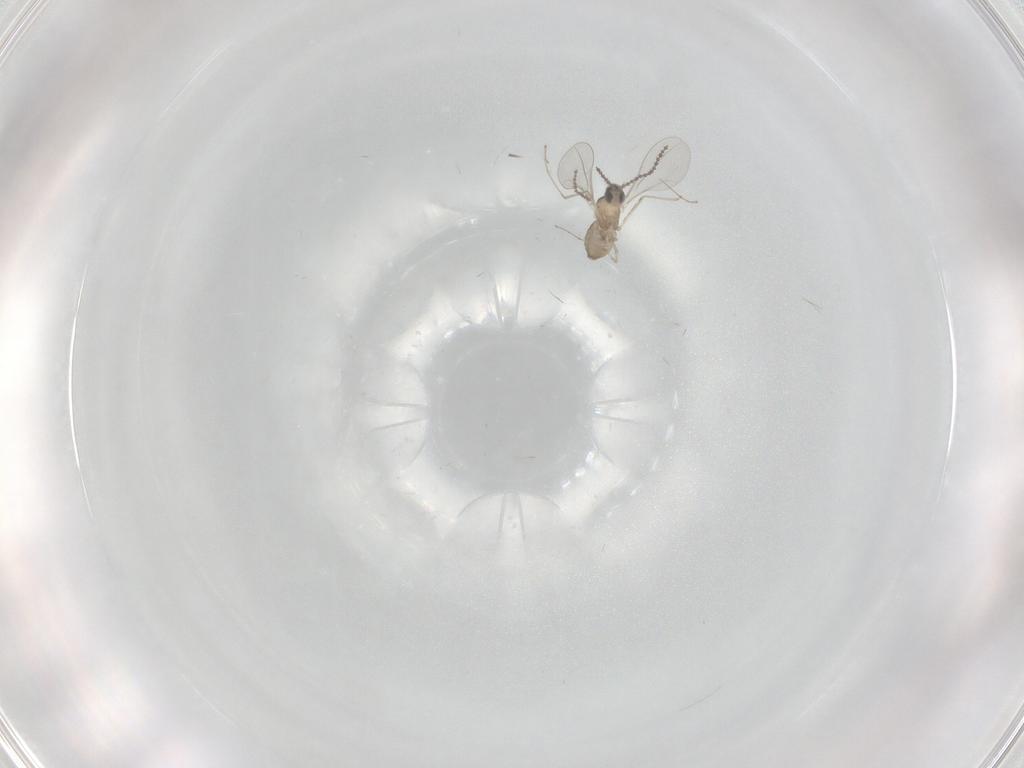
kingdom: Animalia
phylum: Arthropoda
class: Insecta
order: Diptera
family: Cecidomyiidae
